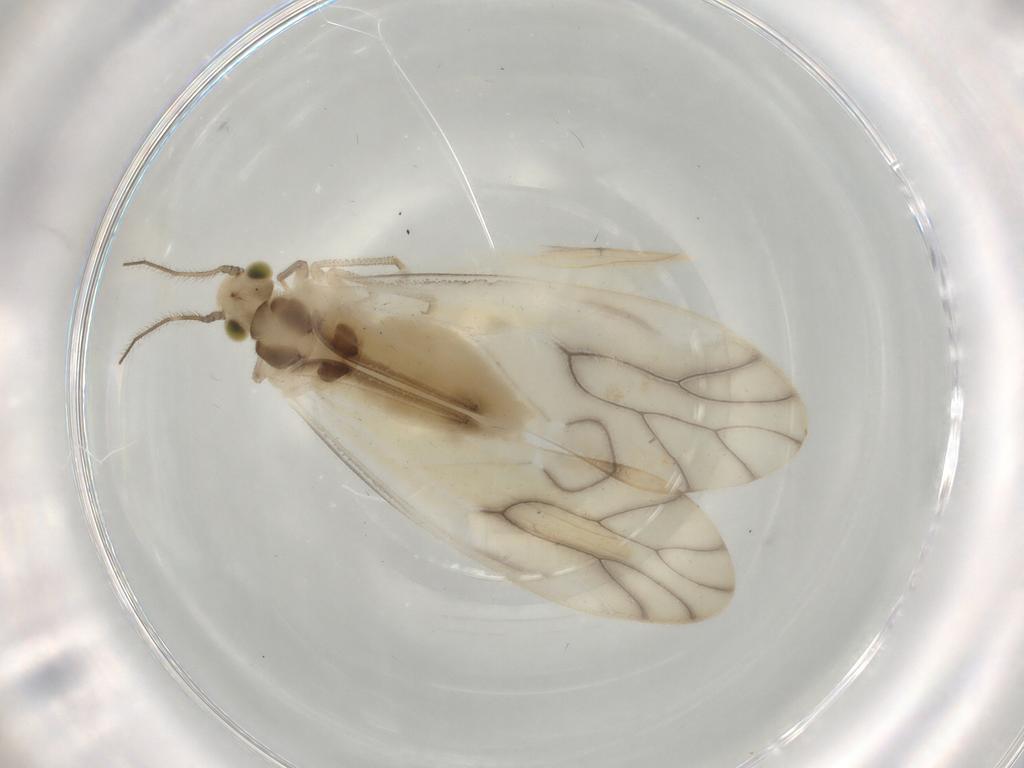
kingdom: Animalia
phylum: Arthropoda
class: Insecta
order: Psocodea
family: Caeciliusidae
